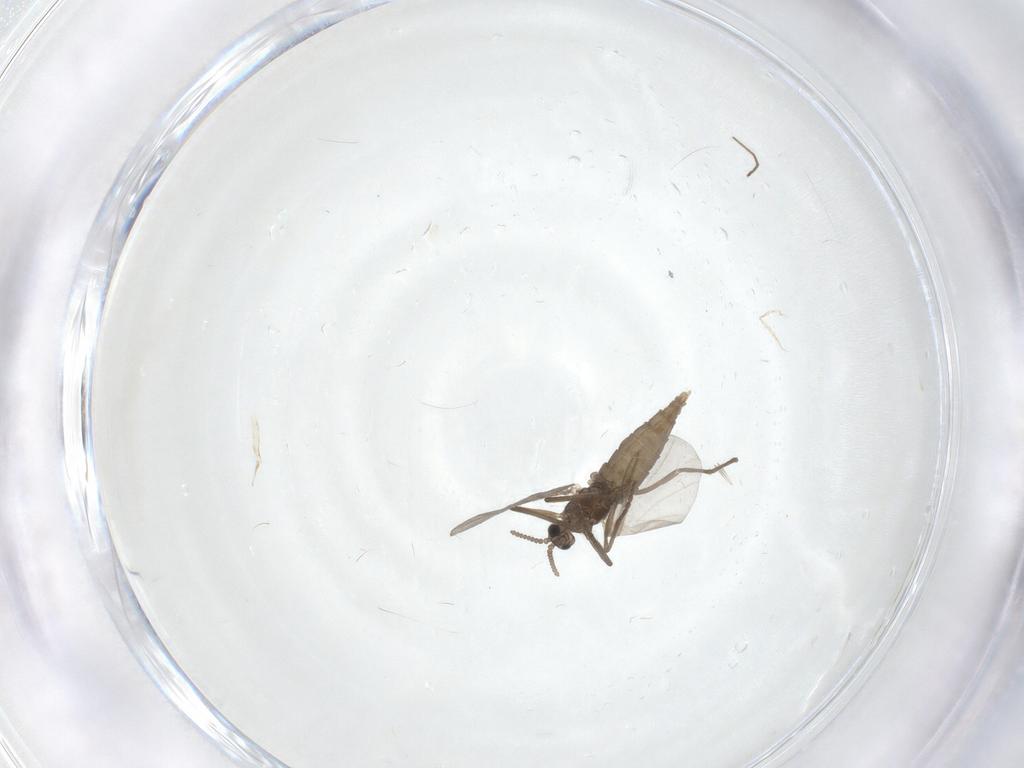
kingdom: Animalia
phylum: Arthropoda
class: Insecta
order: Diptera
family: Cecidomyiidae
